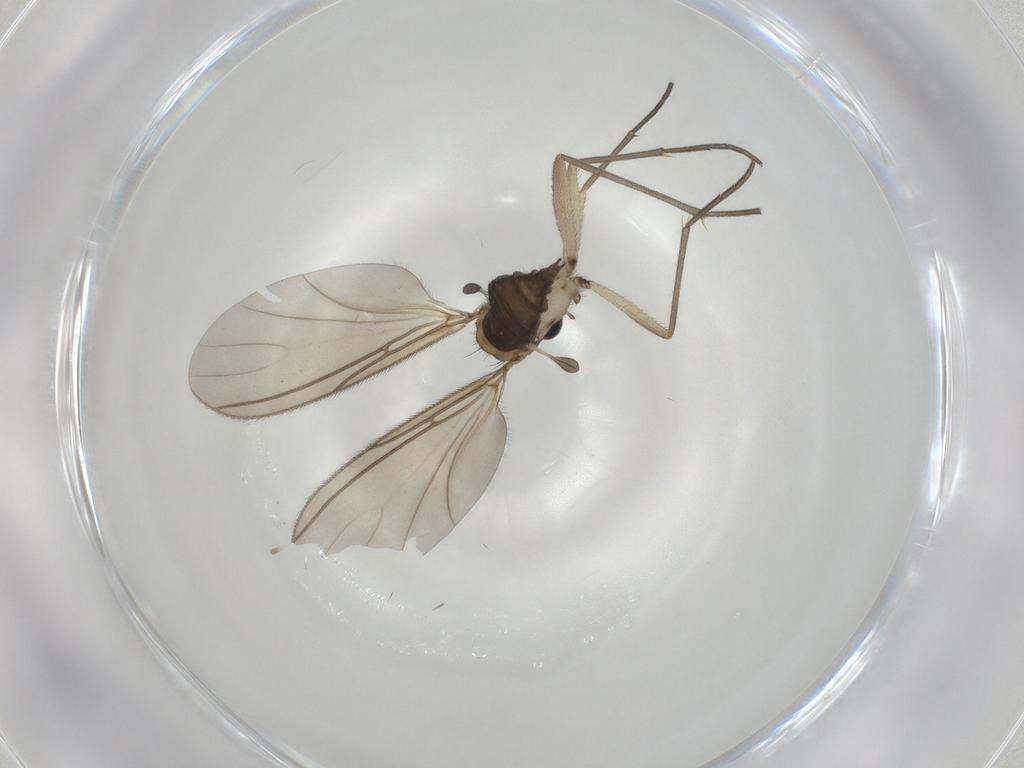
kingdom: Animalia
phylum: Arthropoda
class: Insecta
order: Diptera
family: Sciaridae
